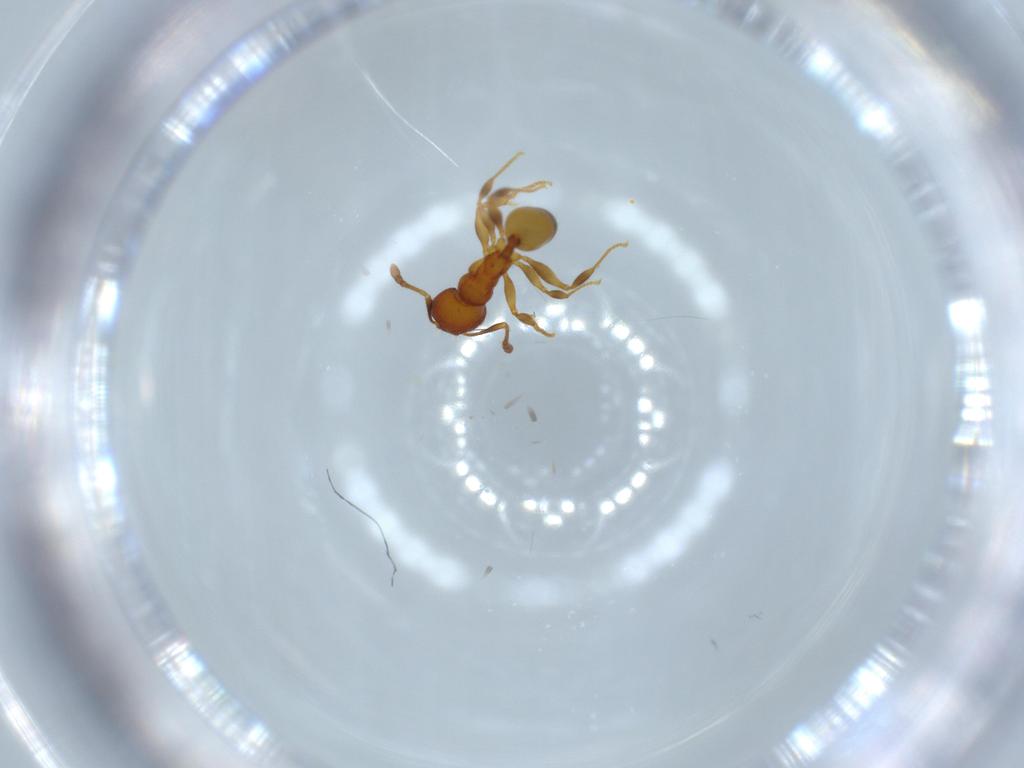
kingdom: Animalia
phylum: Arthropoda
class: Insecta
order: Hymenoptera
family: Formicidae
